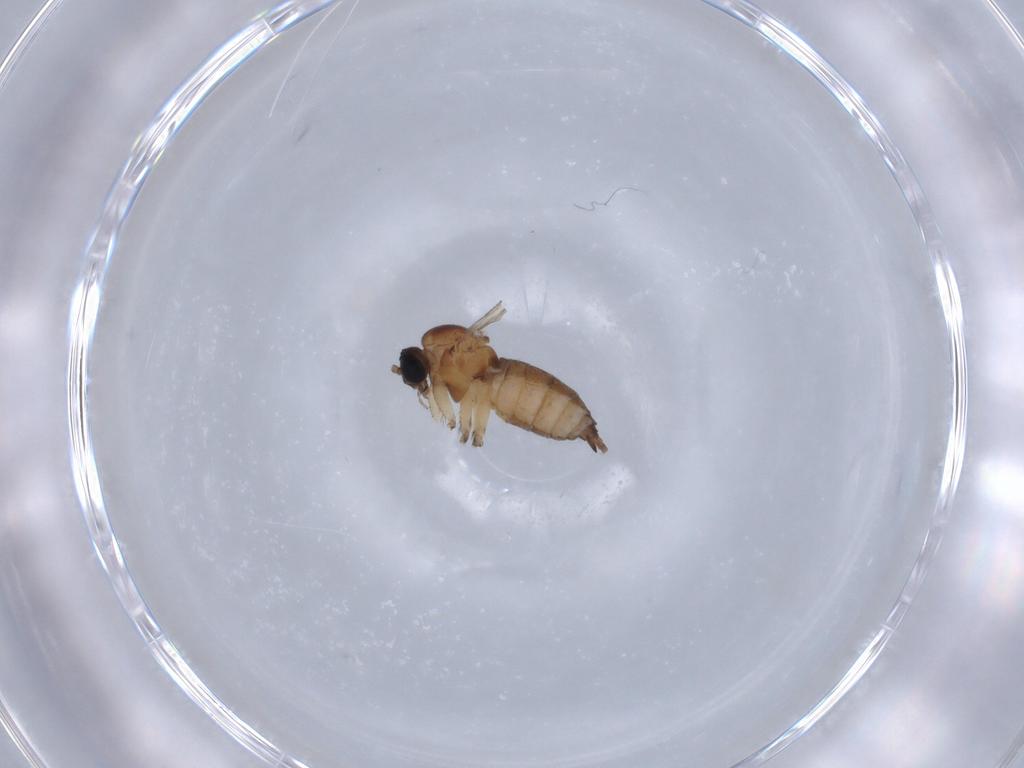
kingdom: Animalia
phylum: Arthropoda
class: Insecta
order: Diptera
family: Sciaridae
